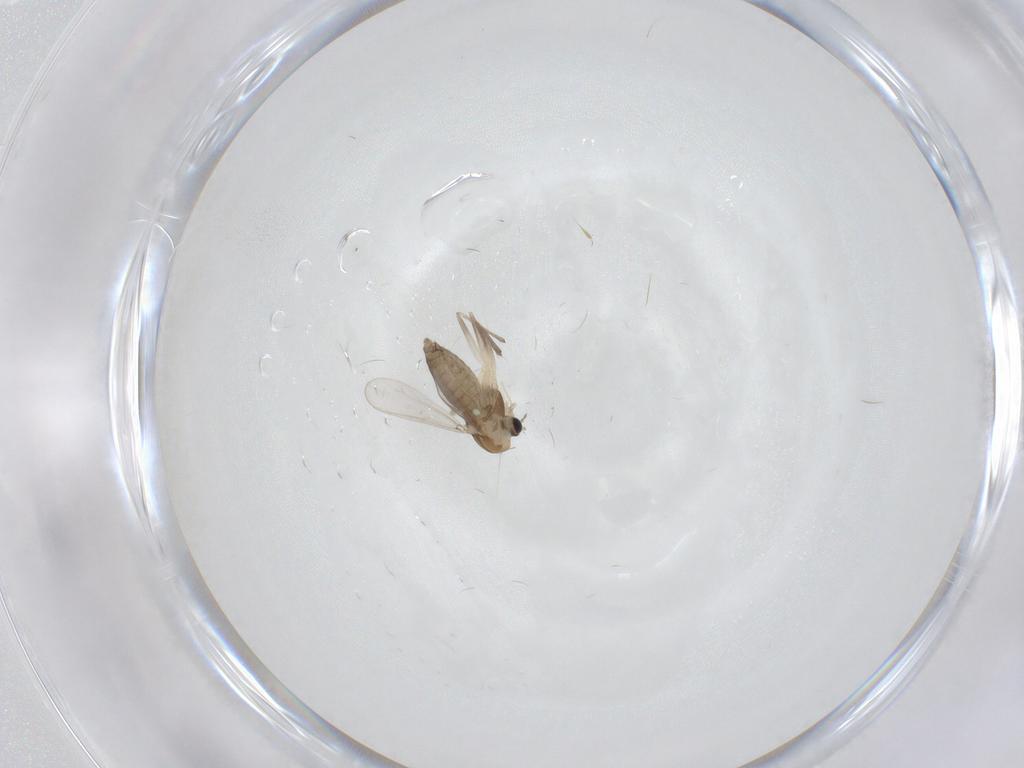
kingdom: Animalia
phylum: Arthropoda
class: Insecta
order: Diptera
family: Chironomidae
